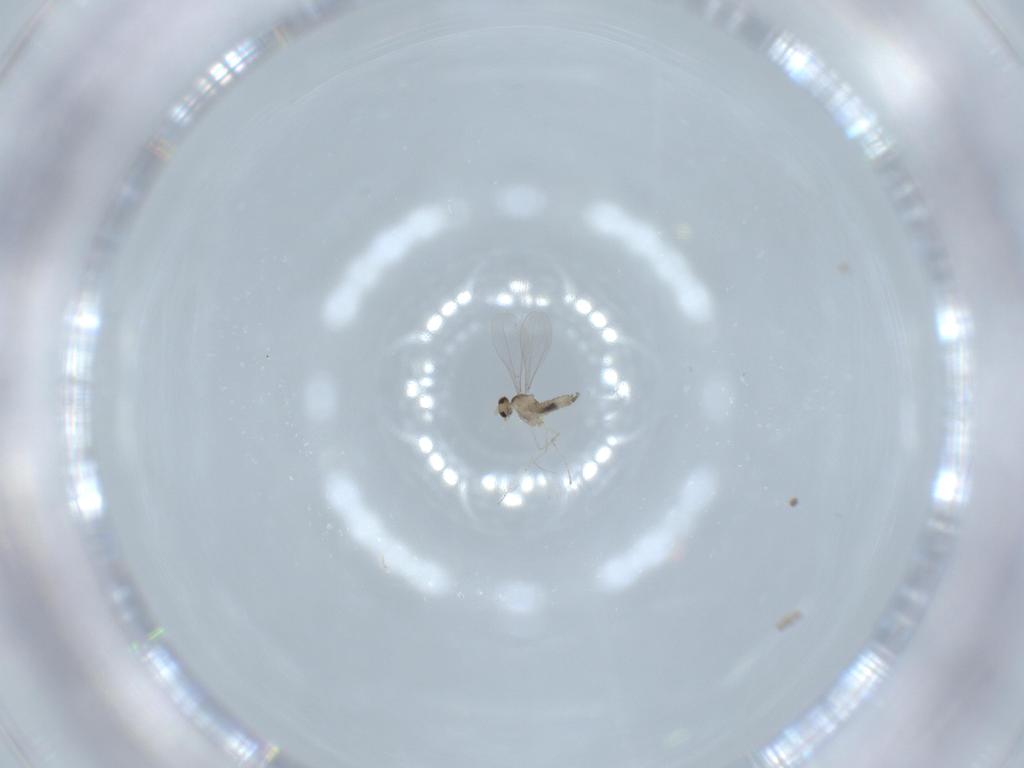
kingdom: Animalia
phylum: Arthropoda
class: Insecta
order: Diptera
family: Cecidomyiidae
